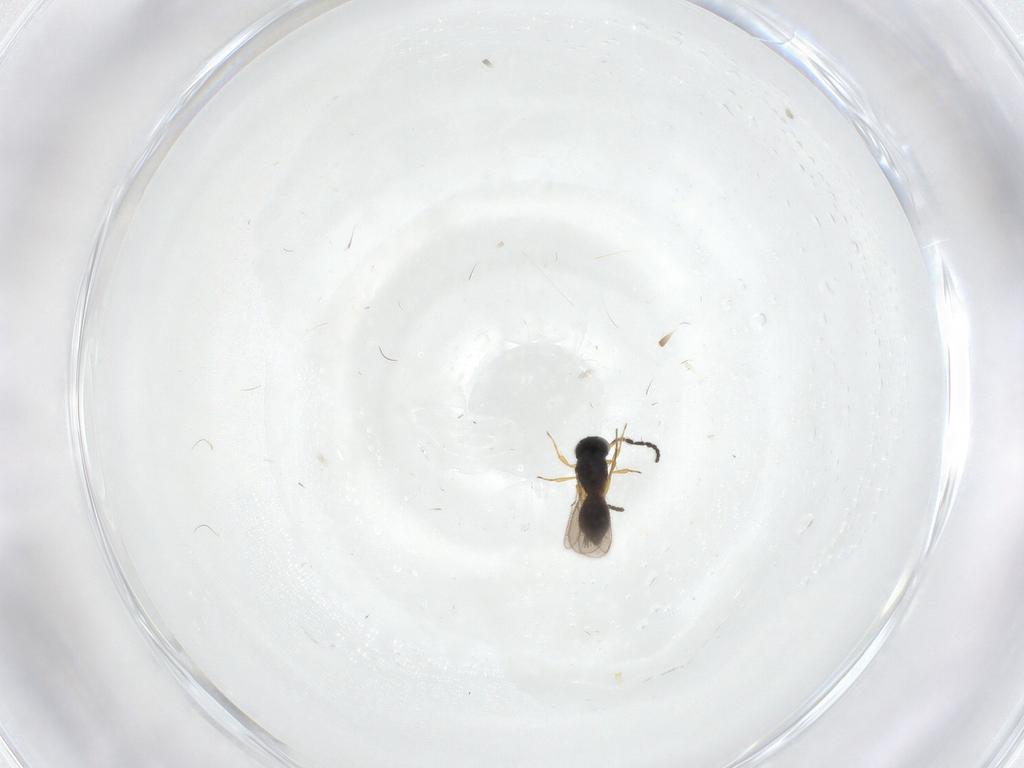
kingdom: Animalia
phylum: Arthropoda
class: Insecta
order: Hymenoptera
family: Scelionidae
